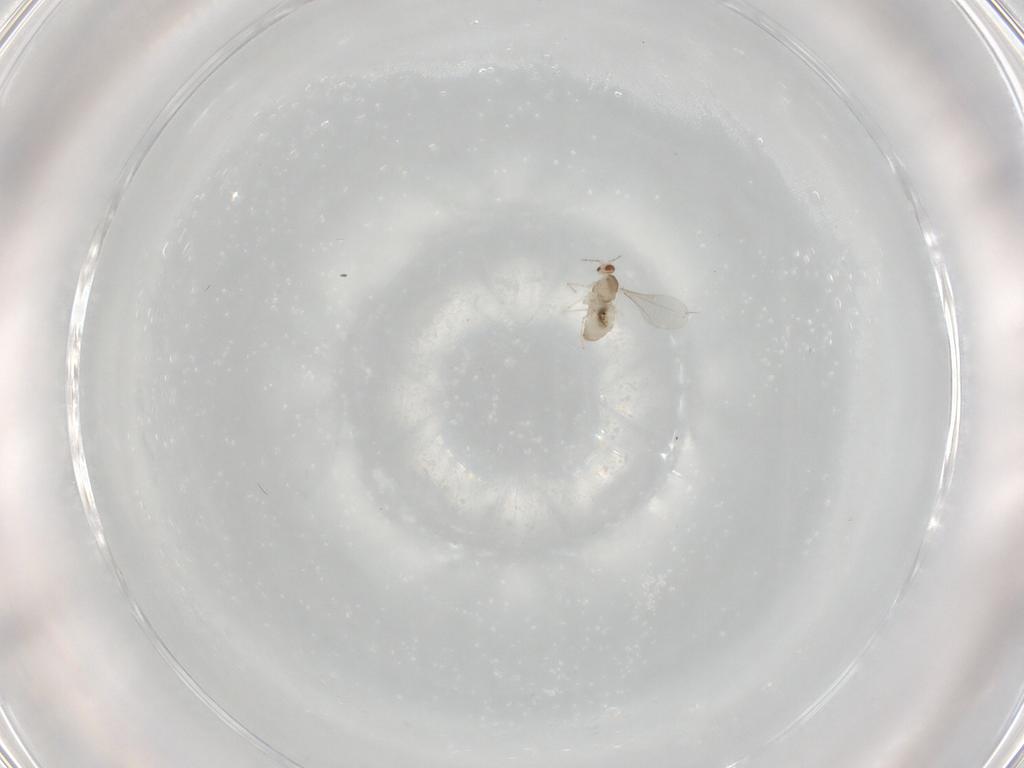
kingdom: Animalia
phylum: Arthropoda
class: Insecta
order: Diptera
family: Cecidomyiidae
